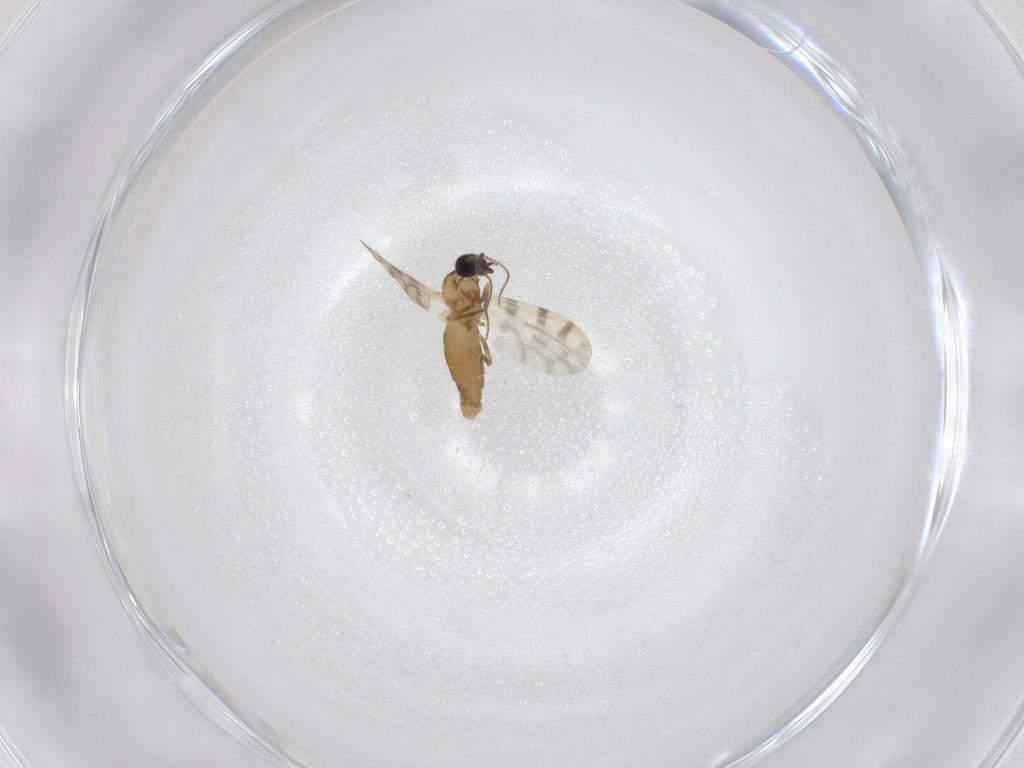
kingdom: Animalia
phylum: Arthropoda
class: Insecta
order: Diptera
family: Ceratopogonidae
